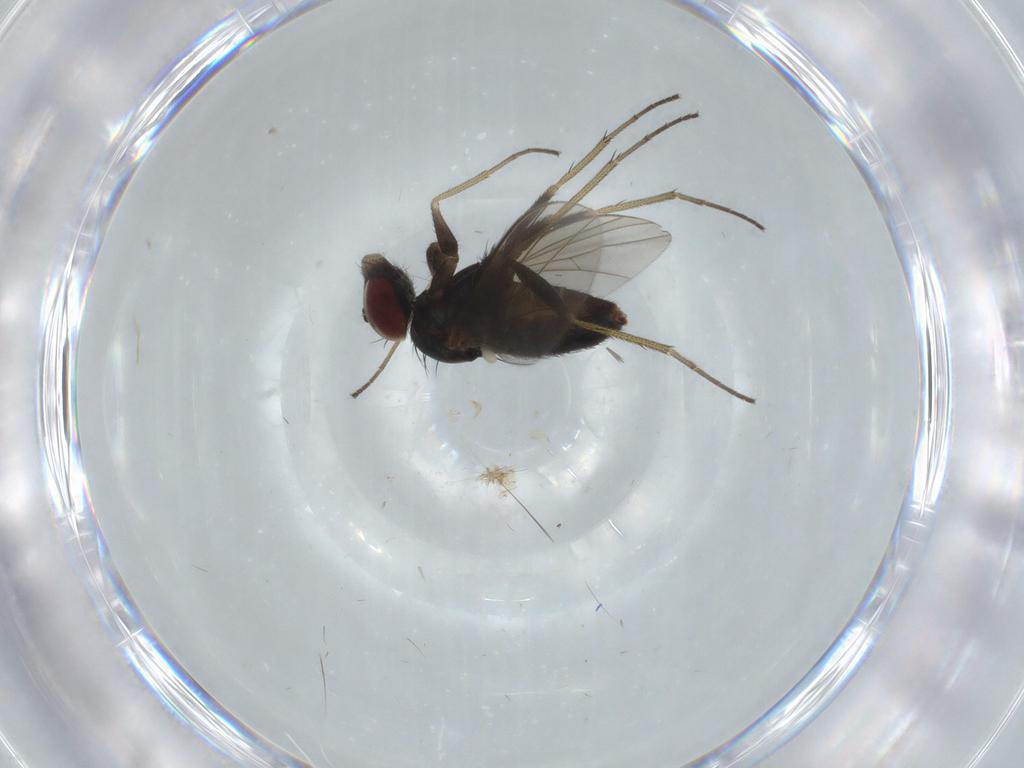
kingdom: Animalia
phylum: Arthropoda
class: Insecta
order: Diptera
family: Dolichopodidae
